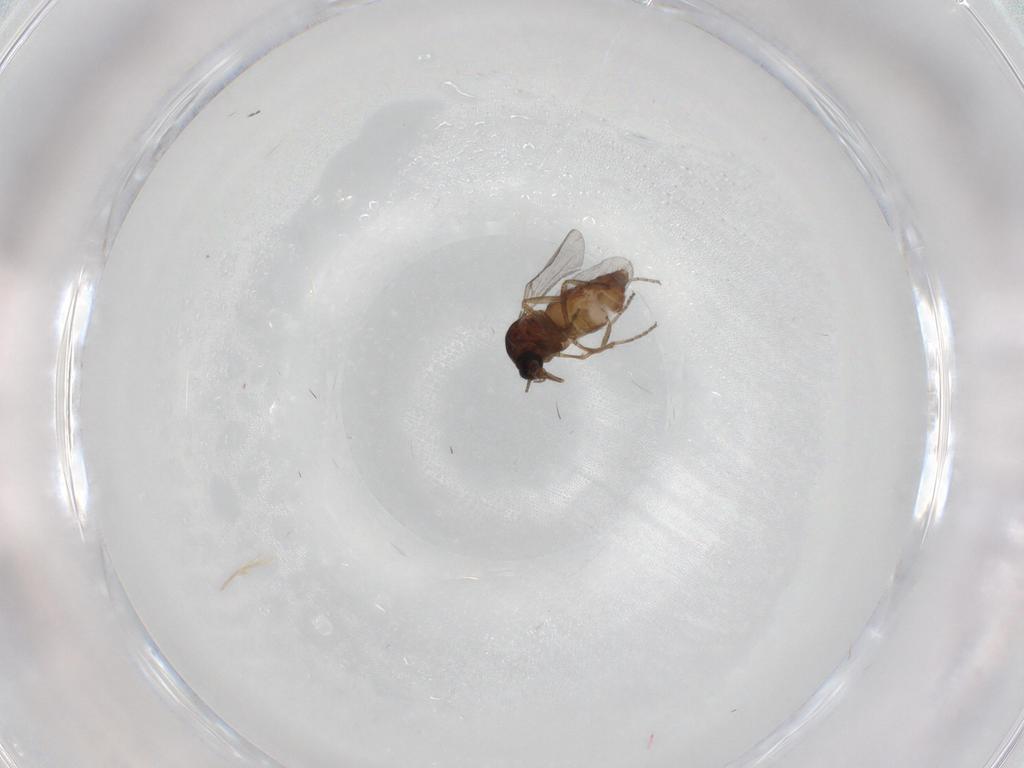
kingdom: Animalia
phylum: Arthropoda
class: Insecta
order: Diptera
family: Ceratopogonidae
